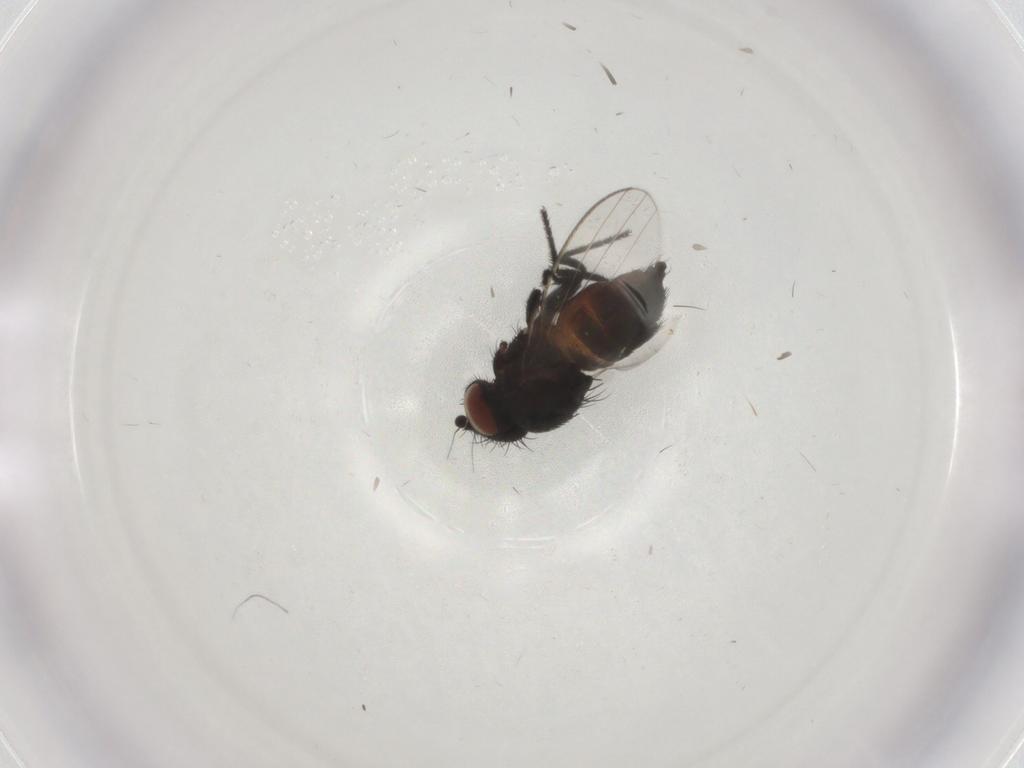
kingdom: Animalia
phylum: Arthropoda
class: Insecta
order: Diptera
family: Milichiidae
